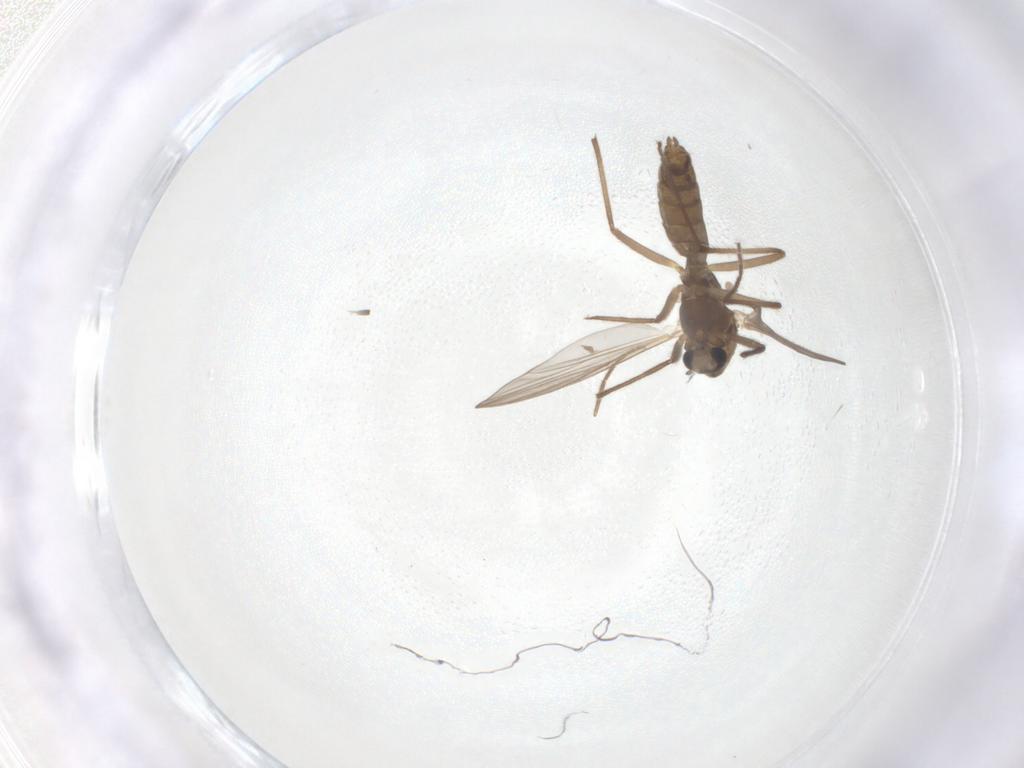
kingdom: Animalia
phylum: Arthropoda
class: Insecta
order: Diptera
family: Chironomidae
